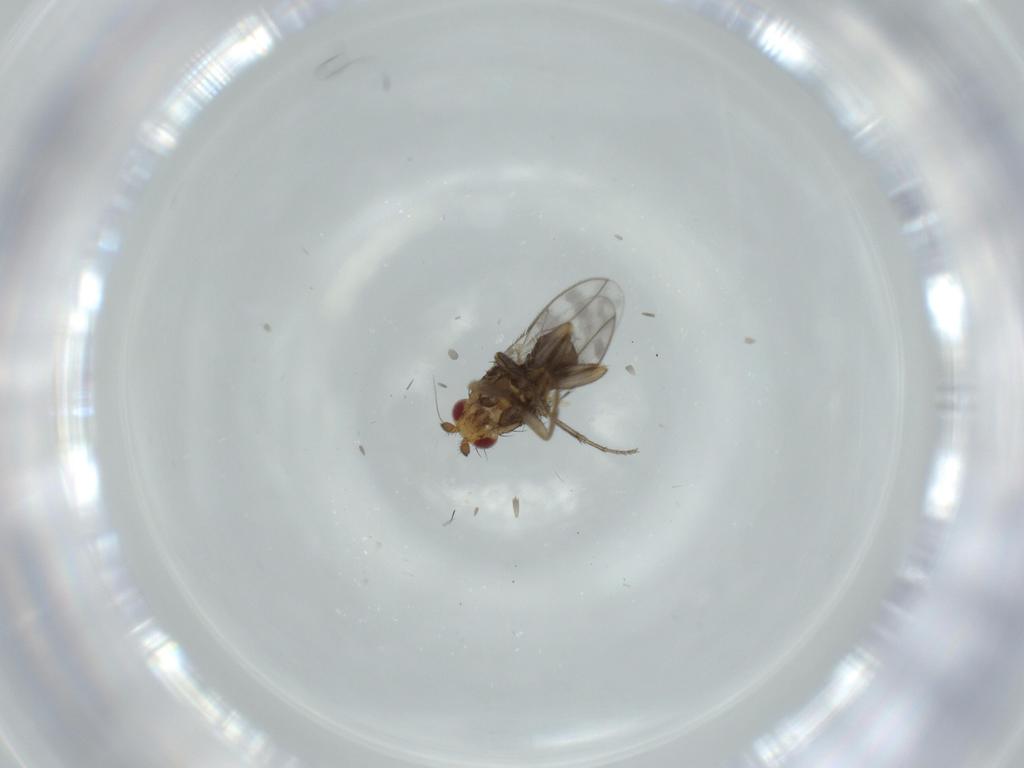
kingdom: Animalia
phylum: Arthropoda
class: Insecta
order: Diptera
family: Sphaeroceridae
